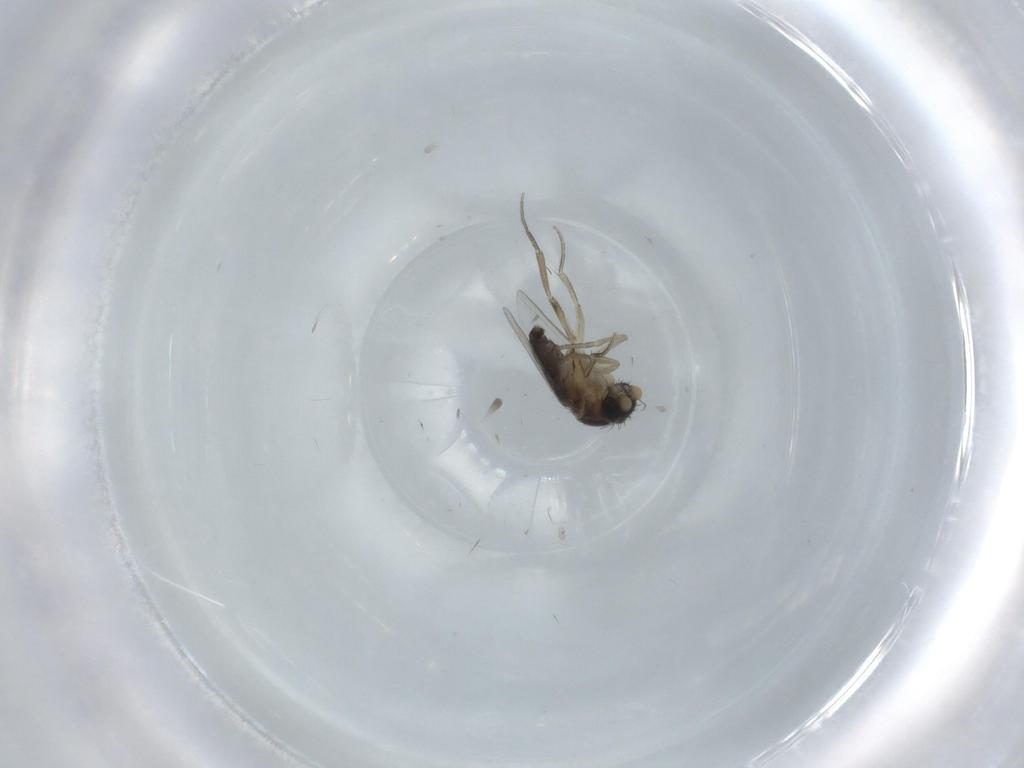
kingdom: Animalia
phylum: Arthropoda
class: Insecta
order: Diptera
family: Phoridae
